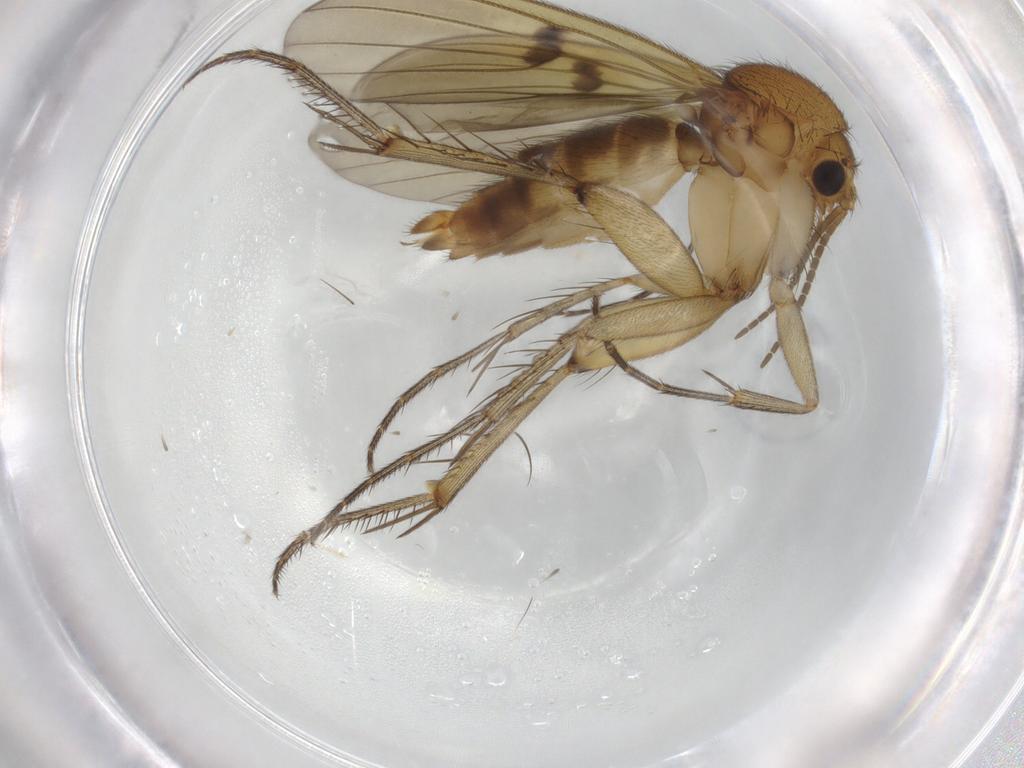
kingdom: Animalia
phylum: Arthropoda
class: Insecta
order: Diptera
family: Mycetophilidae
